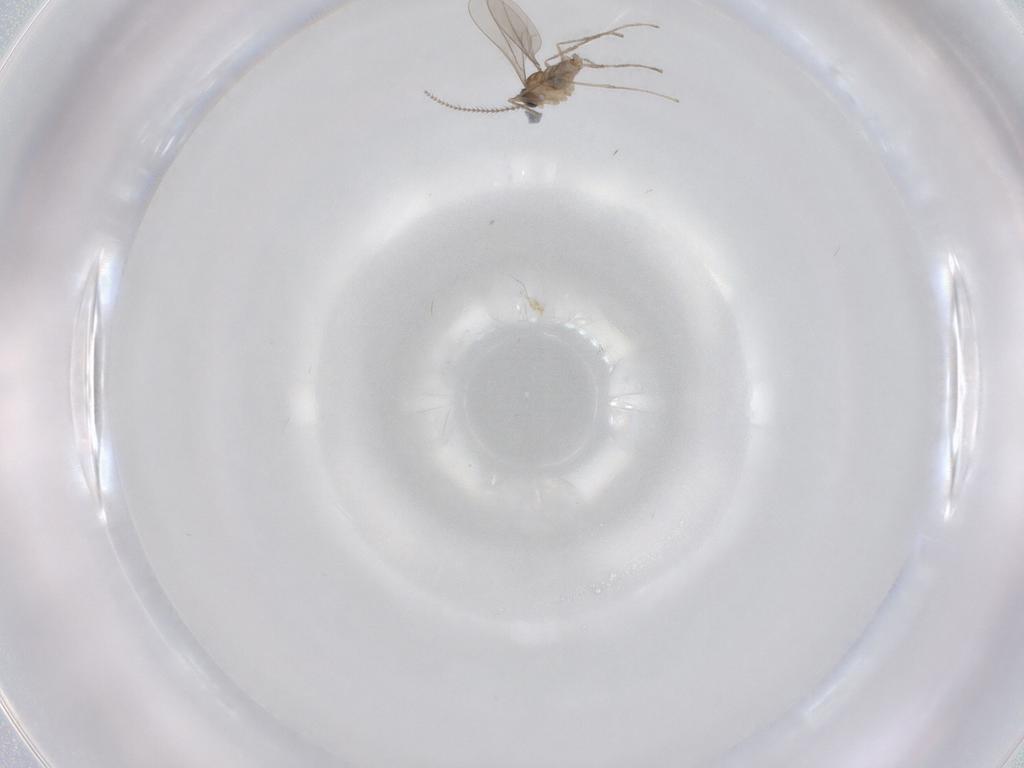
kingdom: Animalia
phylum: Arthropoda
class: Insecta
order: Diptera
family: Cecidomyiidae
